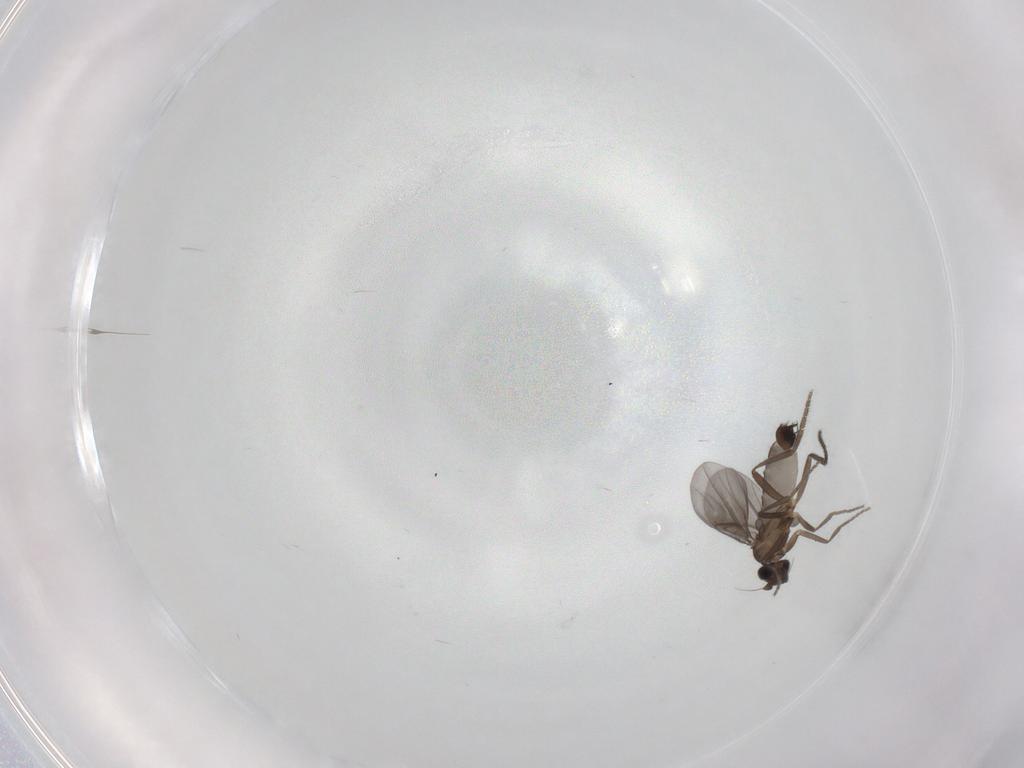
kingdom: Animalia
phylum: Arthropoda
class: Insecta
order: Diptera
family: Phoridae
